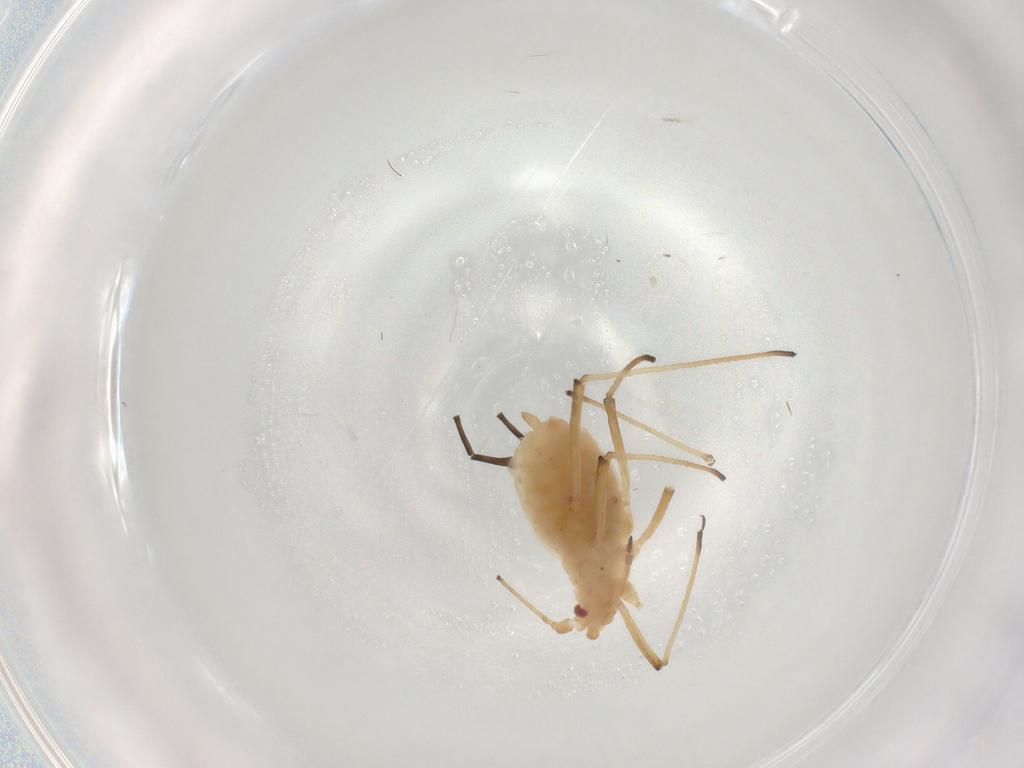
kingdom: Animalia
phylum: Arthropoda
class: Insecta
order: Hemiptera
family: Aphididae
